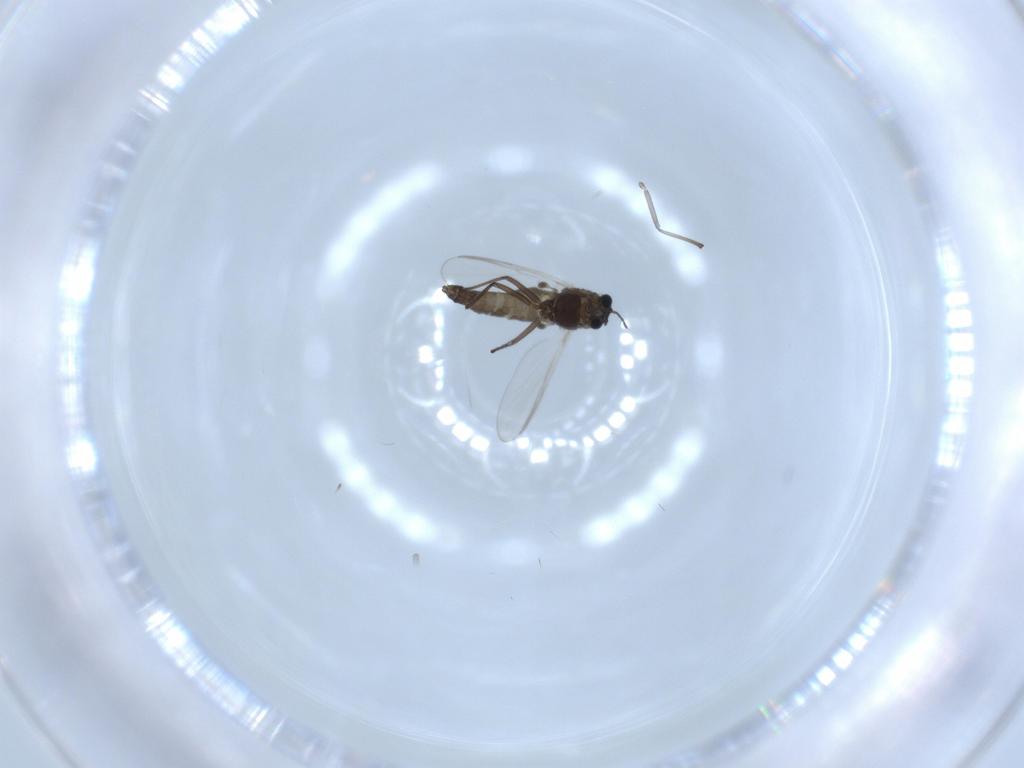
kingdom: Animalia
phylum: Arthropoda
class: Insecta
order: Diptera
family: Chironomidae
